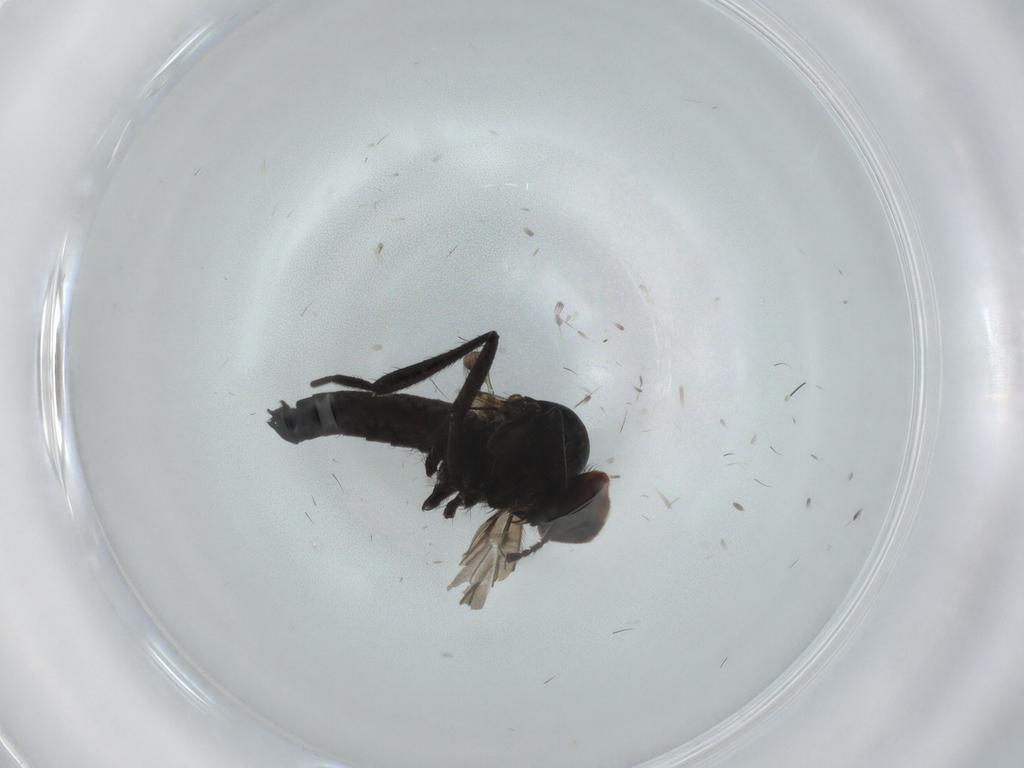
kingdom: Animalia
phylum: Arthropoda
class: Insecta
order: Diptera
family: Hybotidae
